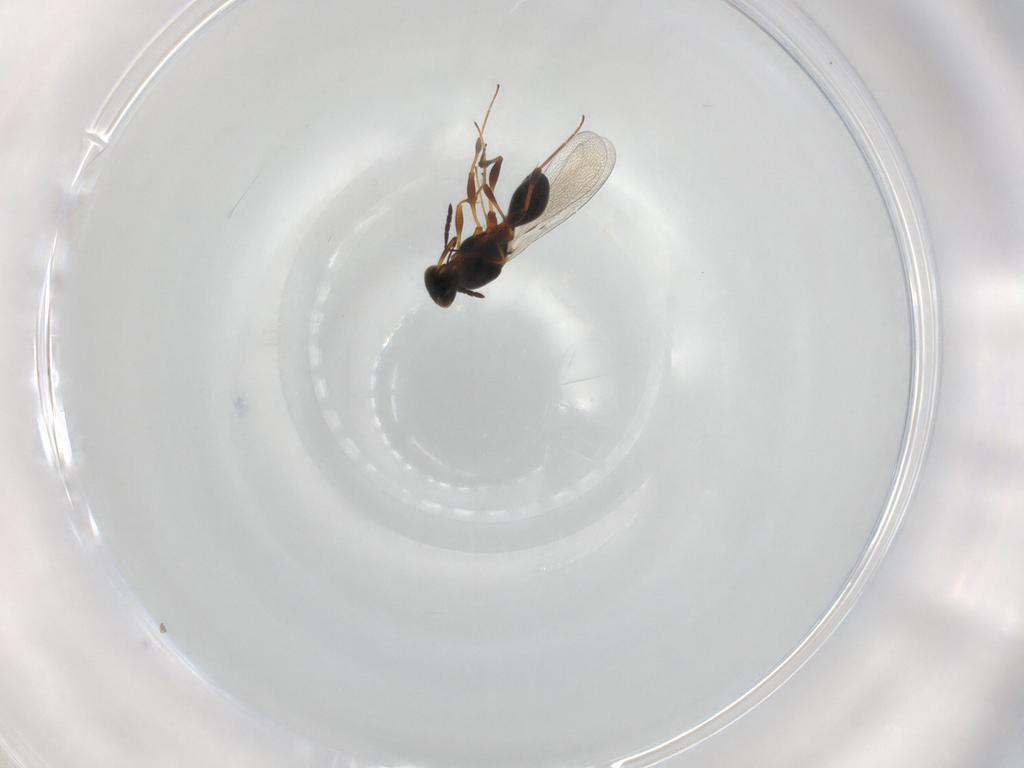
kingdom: Animalia
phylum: Arthropoda
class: Insecta
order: Hymenoptera
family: Platygastridae
